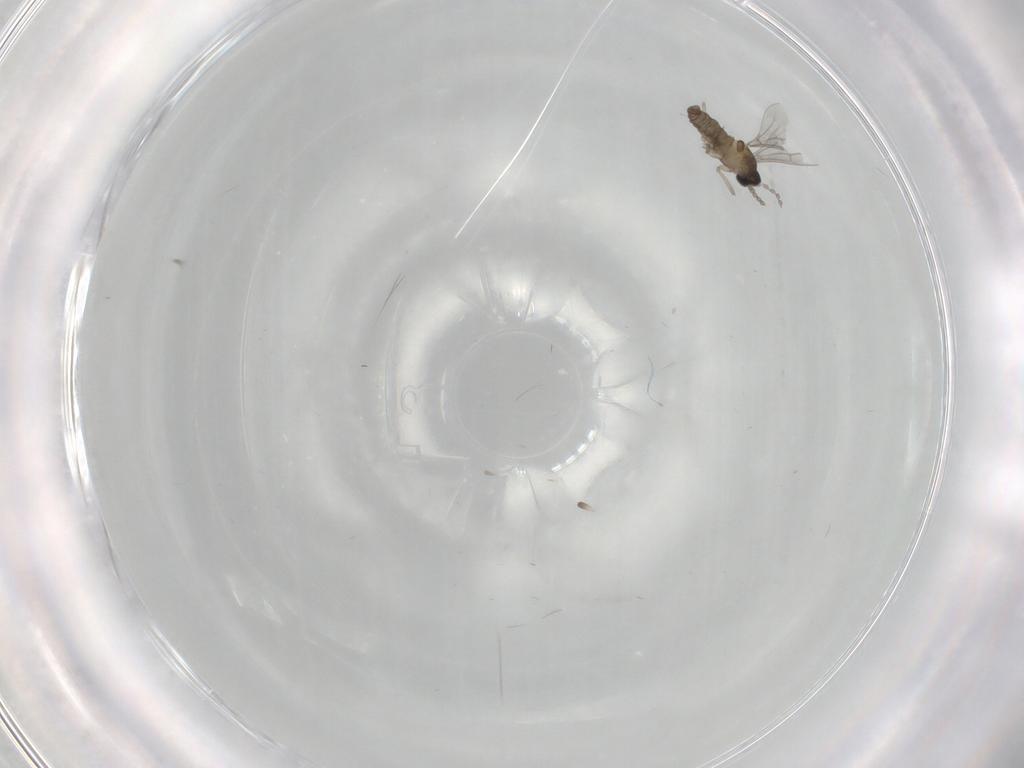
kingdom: Animalia
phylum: Arthropoda
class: Insecta
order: Diptera
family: Cecidomyiidae
